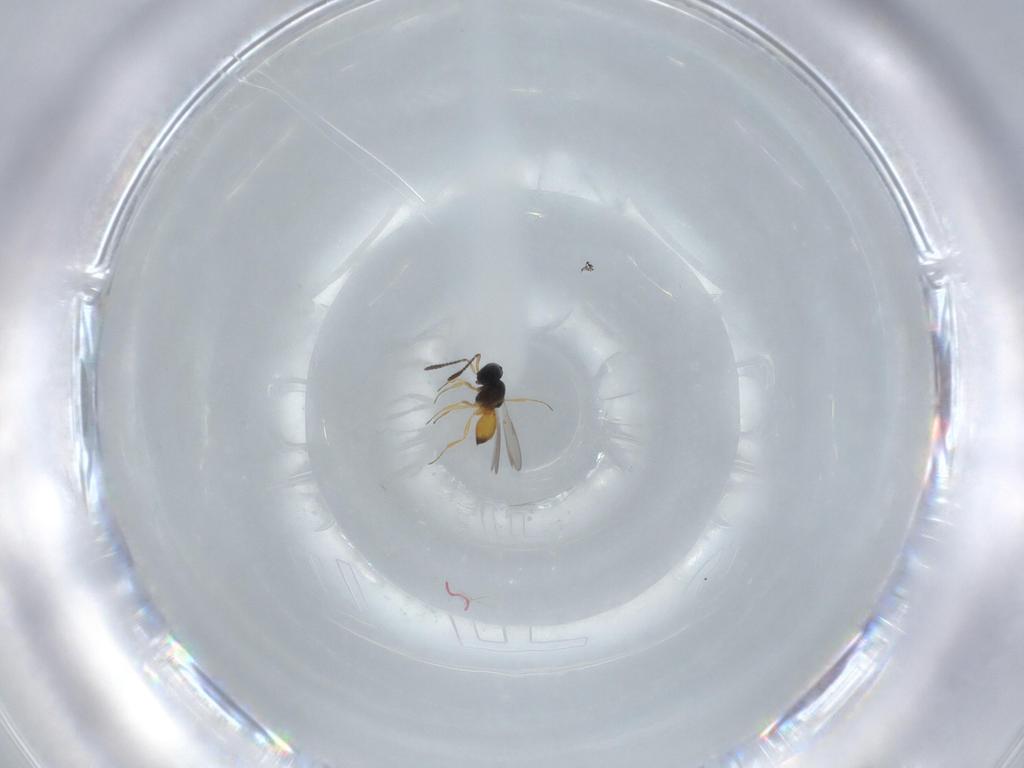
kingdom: Animalia
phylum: Arthropoda
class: Insecta
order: Hymenoptera
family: Scelionidae
